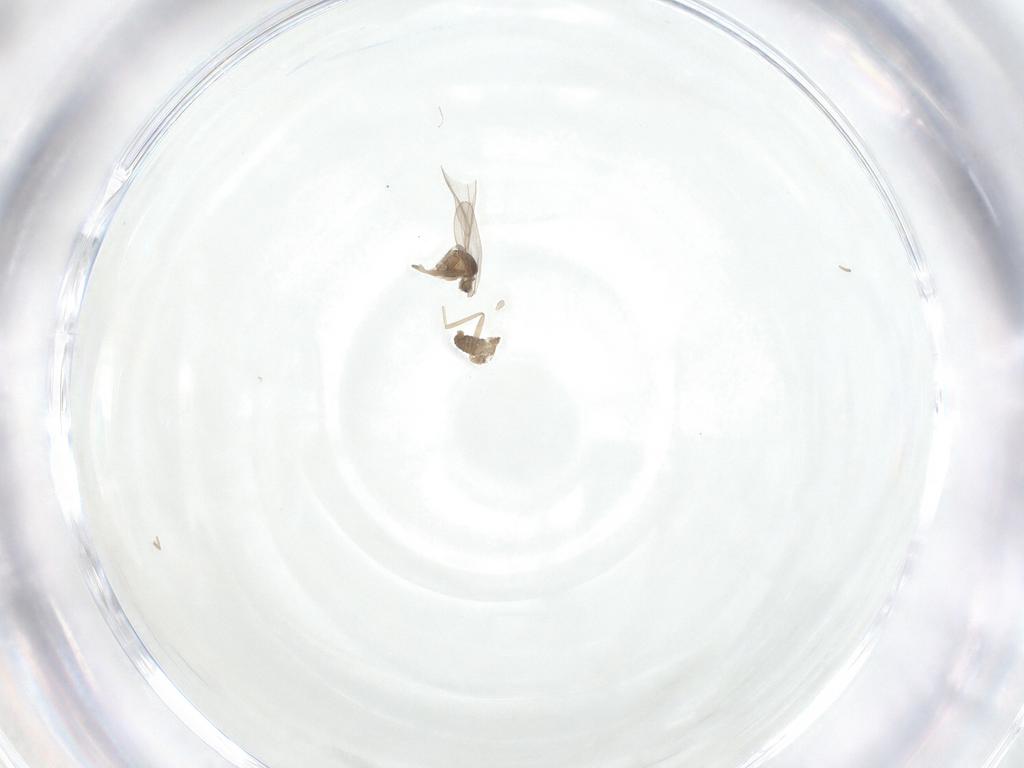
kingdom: Animalia
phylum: Arthropoda
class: Insecta
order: Diptera
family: Cecidomyiidae
